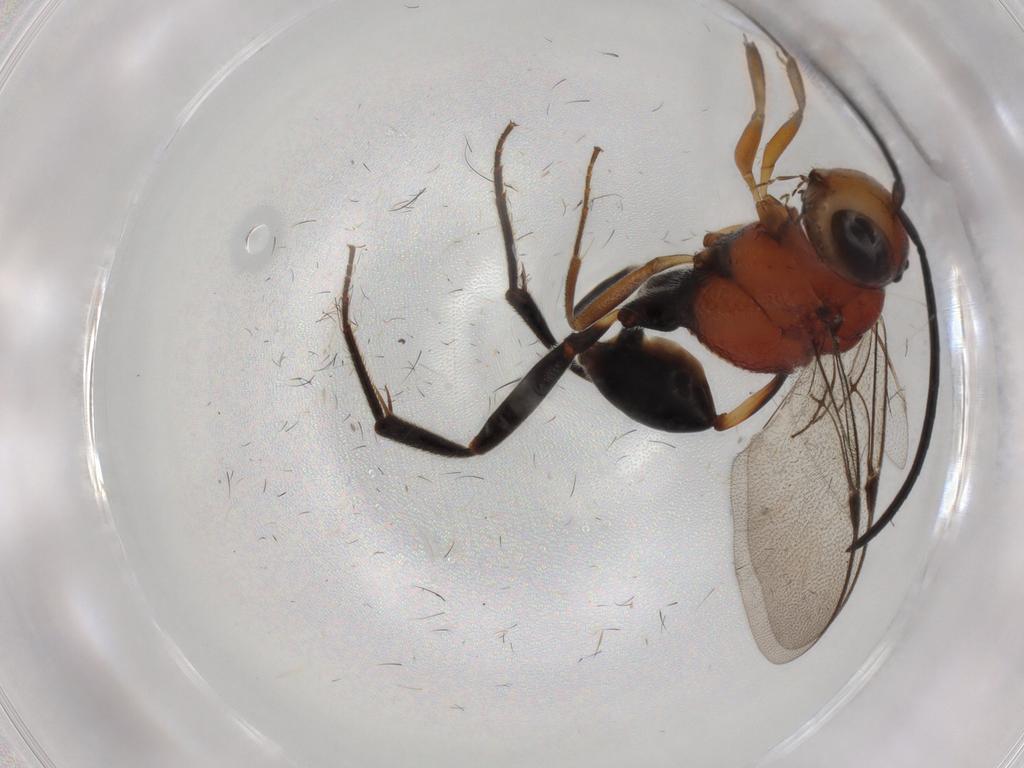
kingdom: Animalia
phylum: Arthropoda
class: Insecta
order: Hymenoptera
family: Evaniidae
